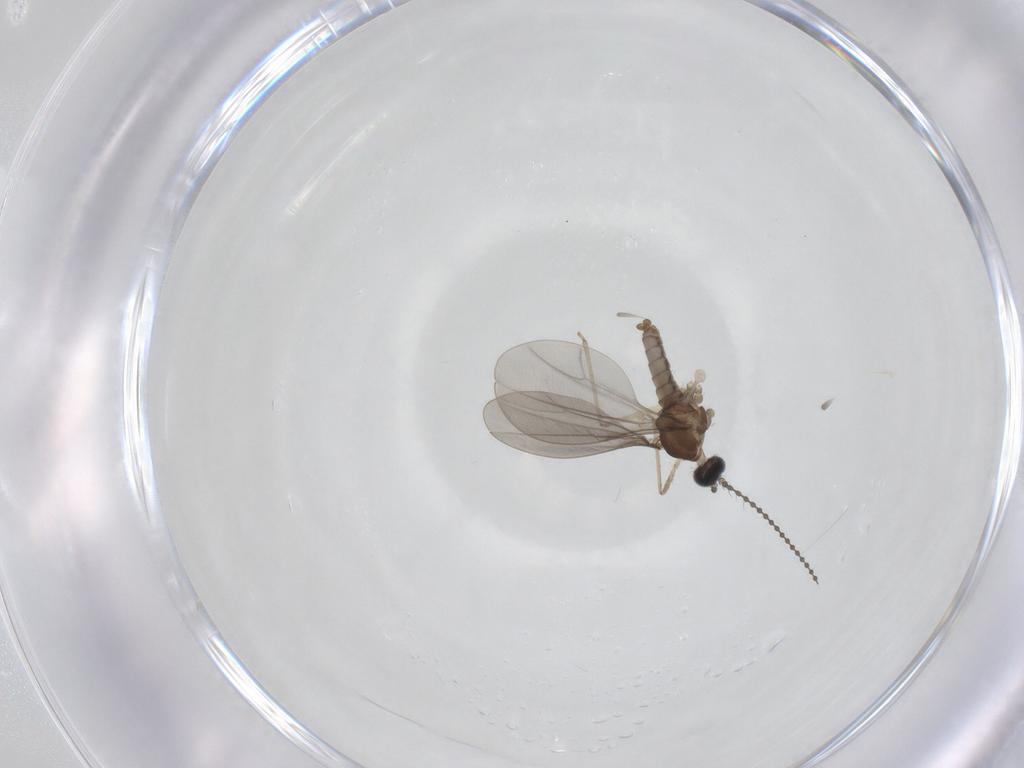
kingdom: Animalia
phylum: Arthropoda
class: Insecta
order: Diptera
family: Cecidomyiidae
